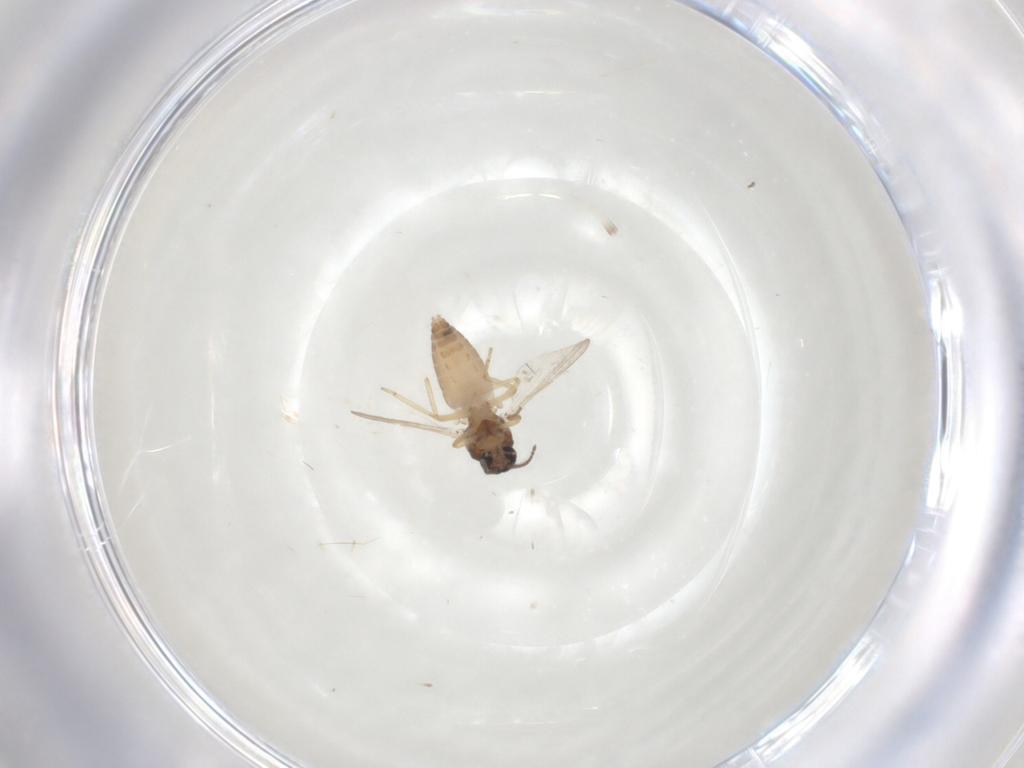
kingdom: Animalia
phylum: Arthropoda
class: Insecta
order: Diptera
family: Ceratopogonidae
